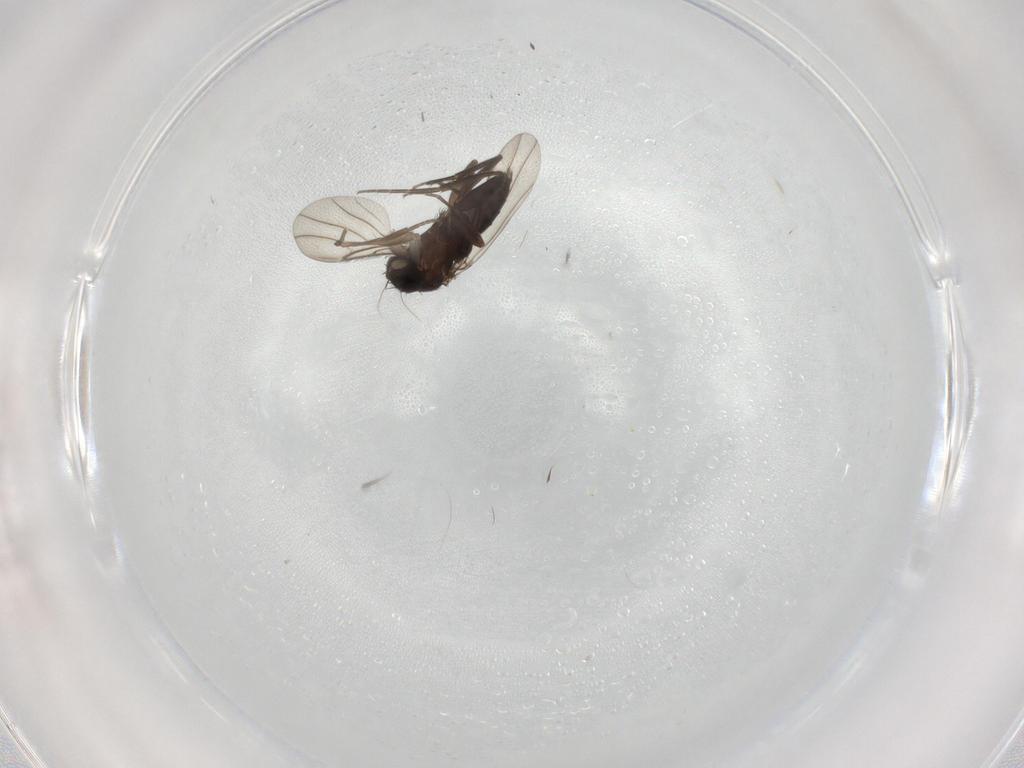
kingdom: Animalia
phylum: Arthropoda
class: Insecta
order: Diptera
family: Phoridae
